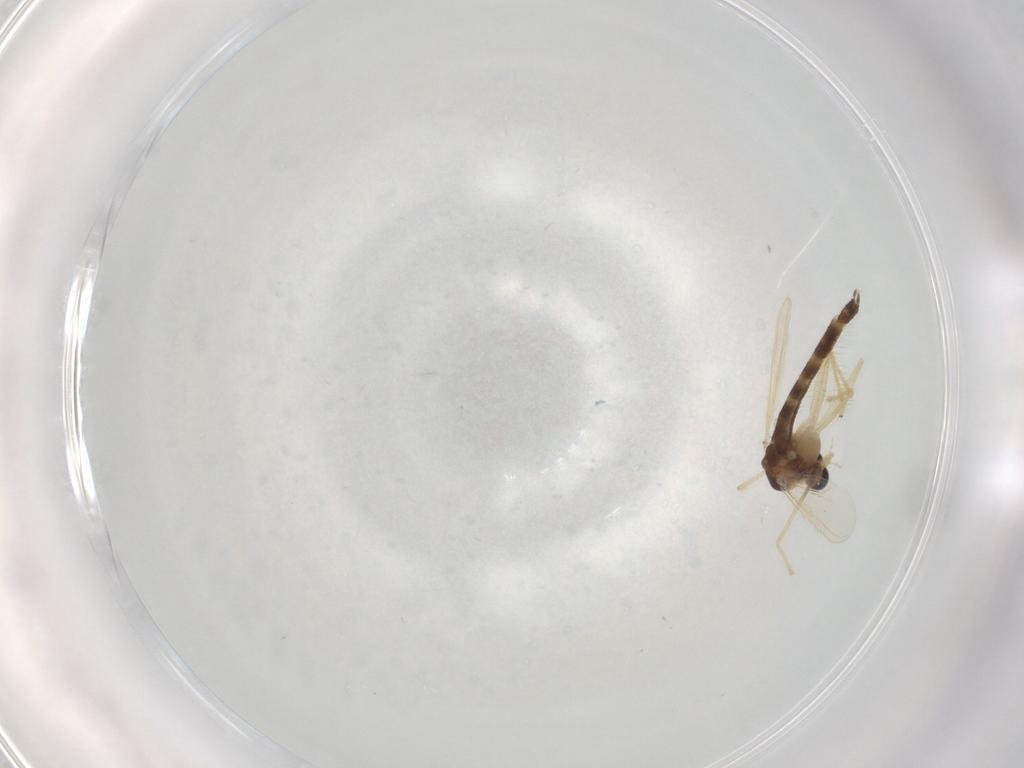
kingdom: Animalia
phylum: Arthropoda
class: Insecta
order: Diptera
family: Chironomidae
